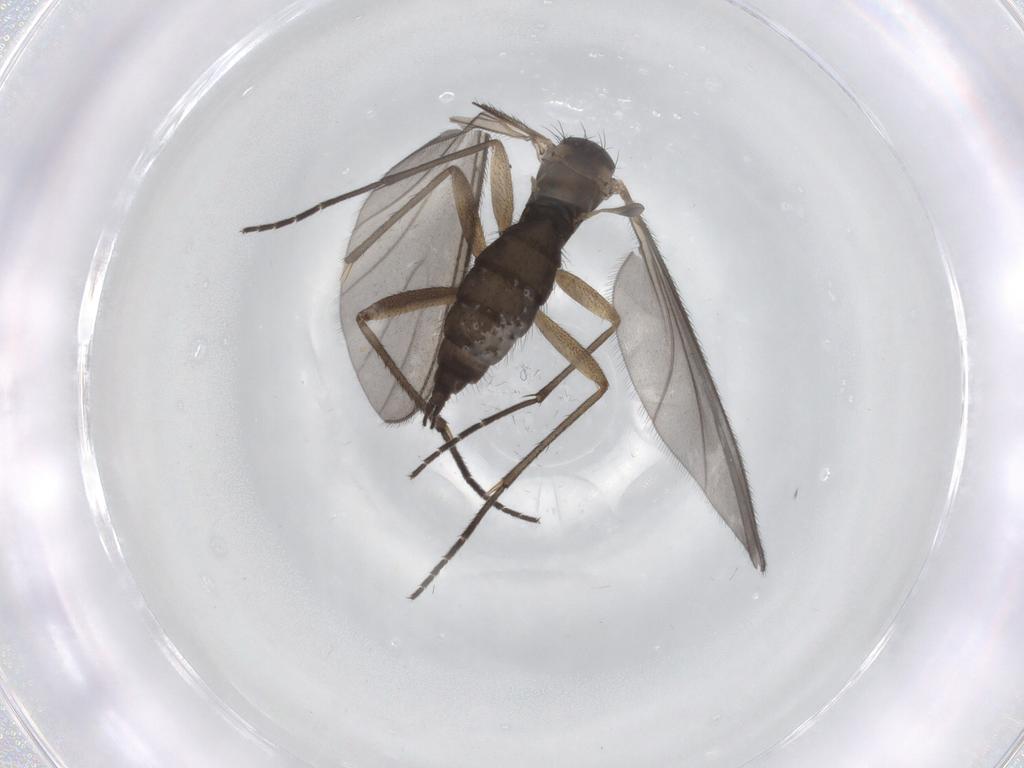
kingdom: Animalia
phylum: Arthropoda
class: Insecta
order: Diptera
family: Sciaridae
